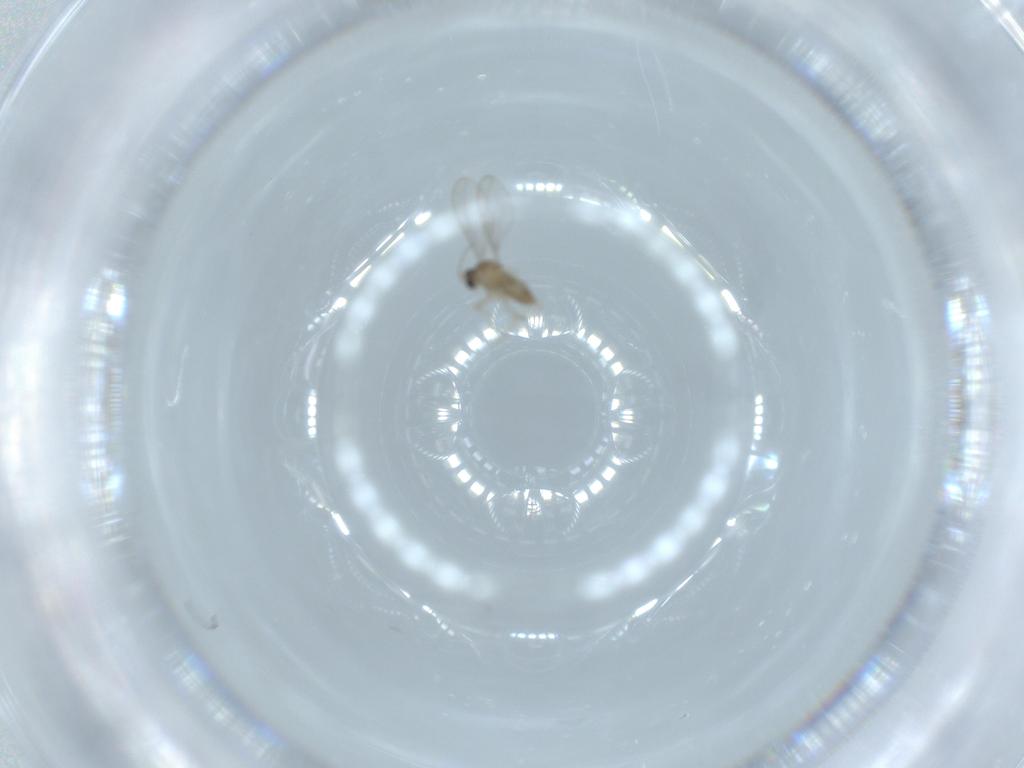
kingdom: Animalia
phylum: Arthropoda
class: Insecta
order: Diptera
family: Cecidomyiidae
